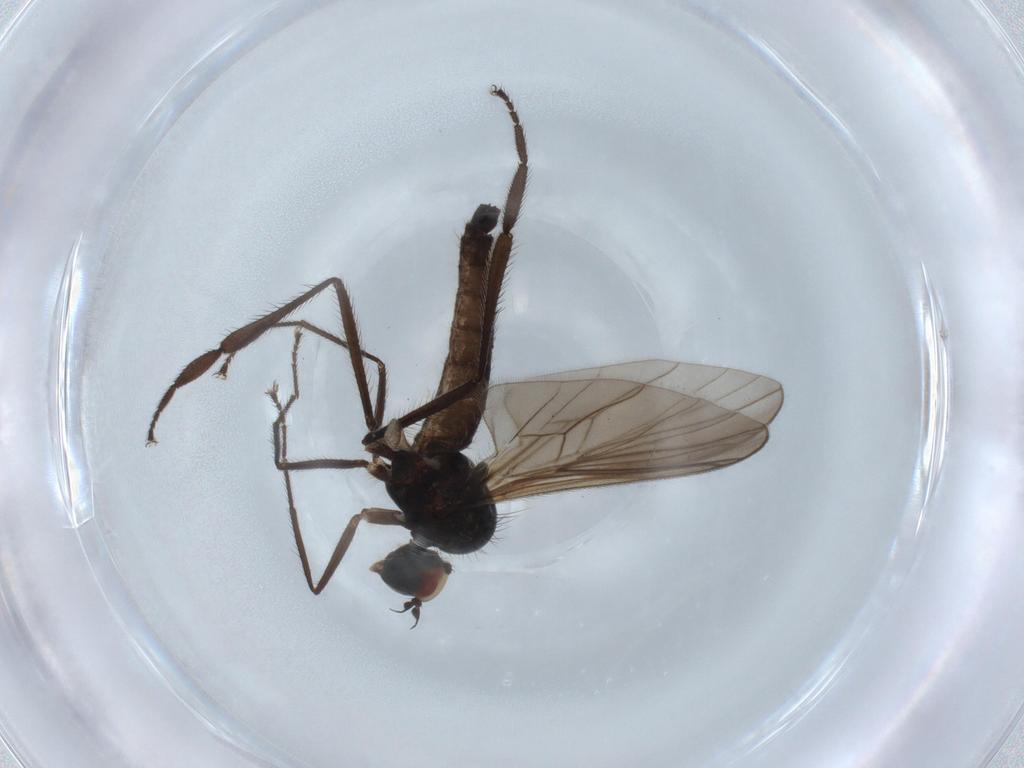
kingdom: Animalia
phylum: Arthropoda
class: Insecta
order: Diptera
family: Hybotidae
